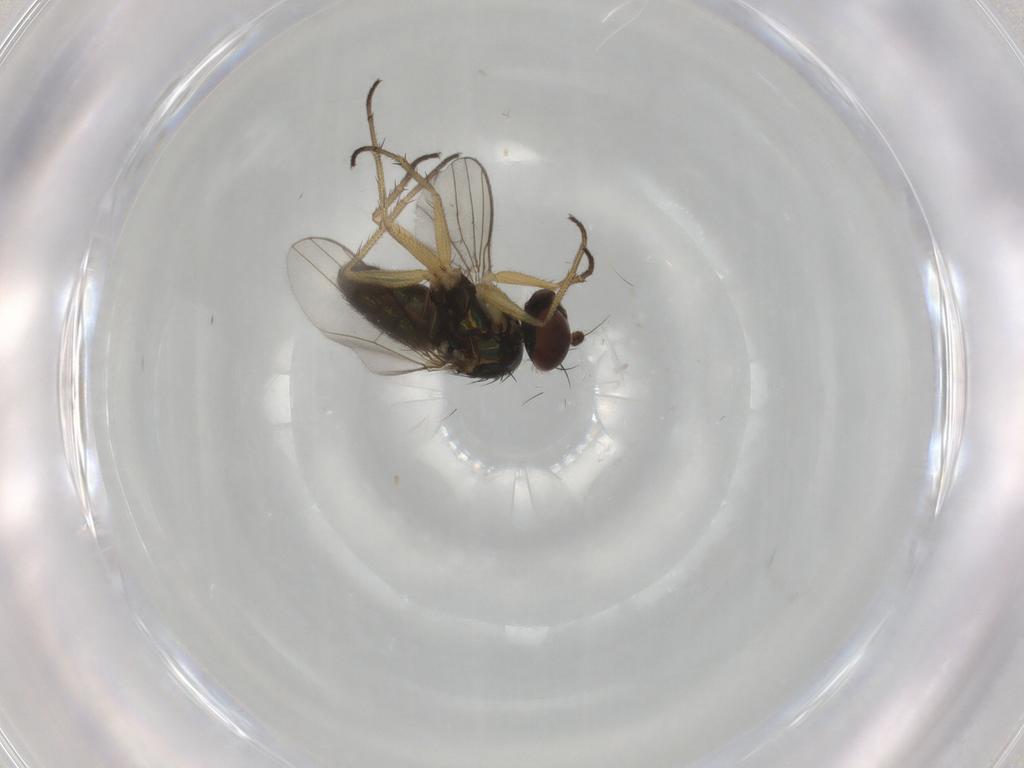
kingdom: Animalia
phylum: Arthropoda
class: Insecta
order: Diptera
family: Dolichopodidae
